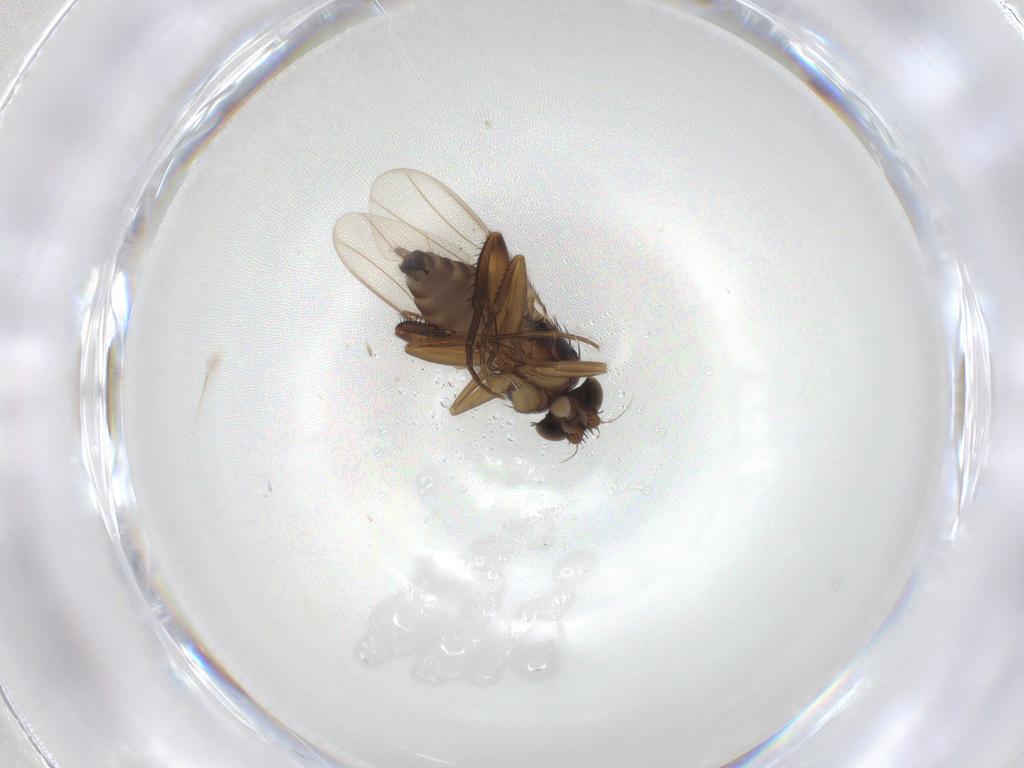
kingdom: Animalia
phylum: Arthropoda
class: Insecta
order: Diptera
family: Phoridae
